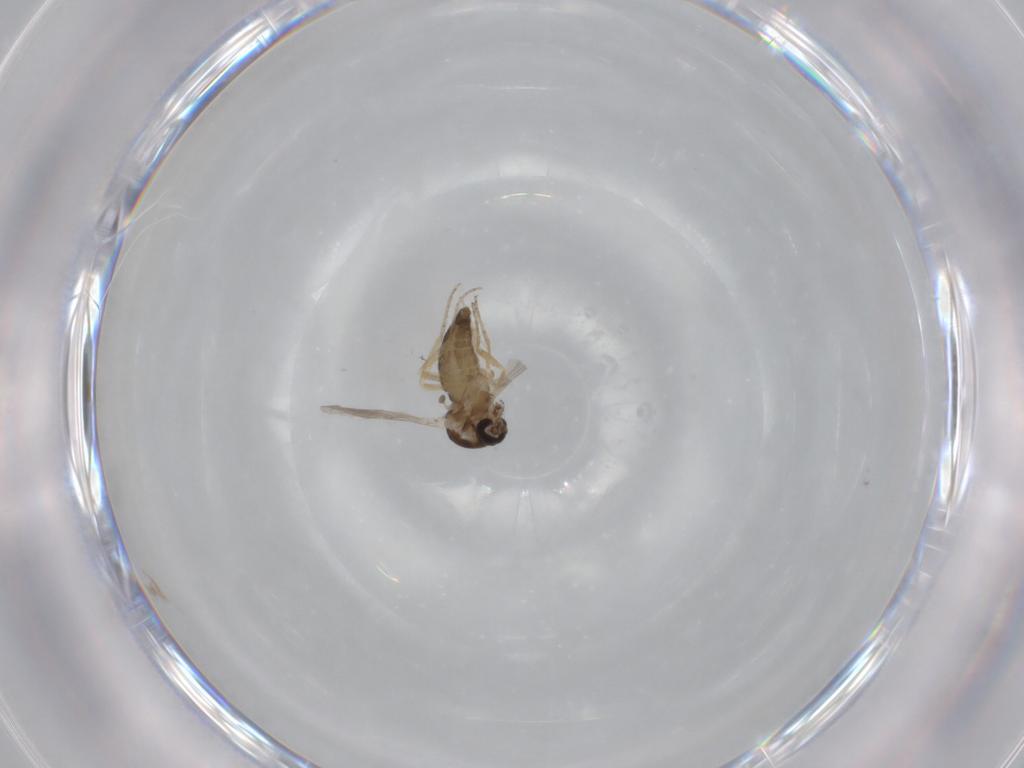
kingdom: Animalia
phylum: Arthropoda
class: Insecta
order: Diptera
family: Ceratopogonidae
